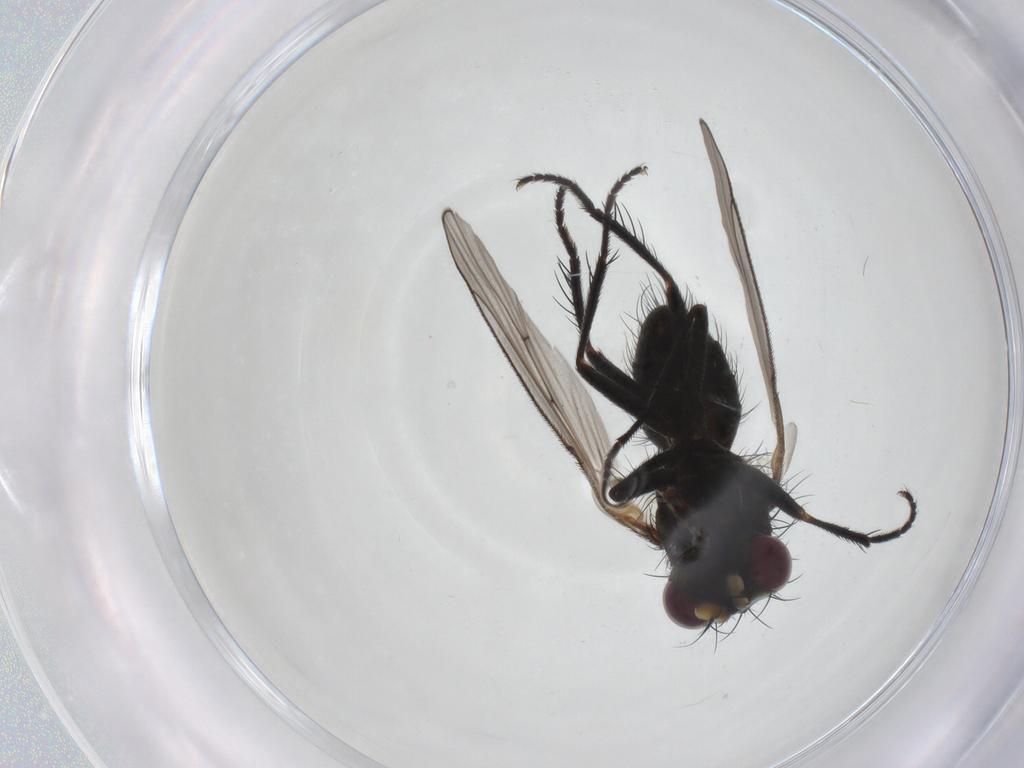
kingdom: Animalia
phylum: Arthropoda
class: Insecta
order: Diptera
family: Muscidae
